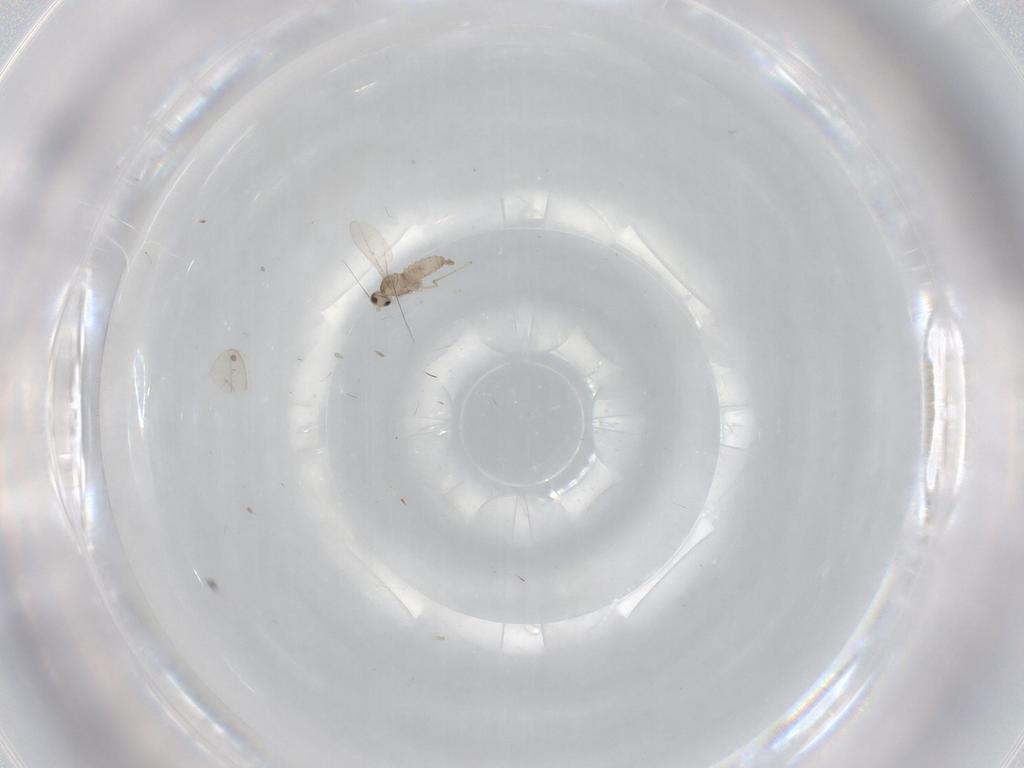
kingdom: Animalia
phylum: Arthropoda
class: Insecta
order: Diptera
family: Cecidomyiidae
